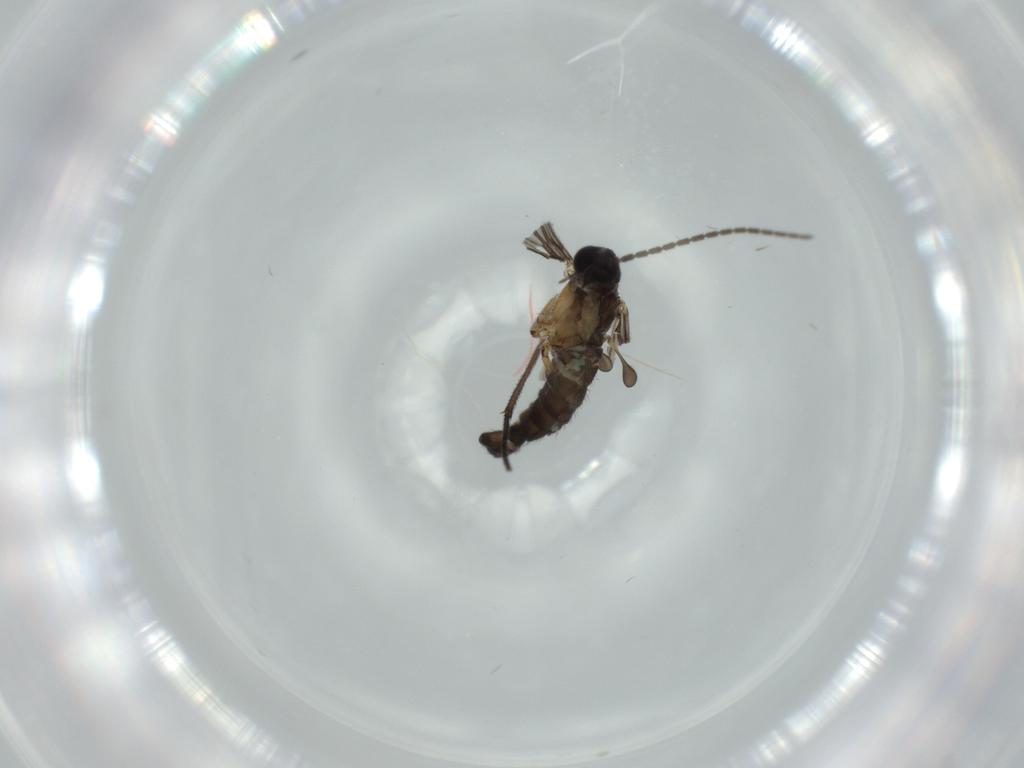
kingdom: Animalia
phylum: Arthropoda
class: Insecta
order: Diptera
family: Sciaridae
